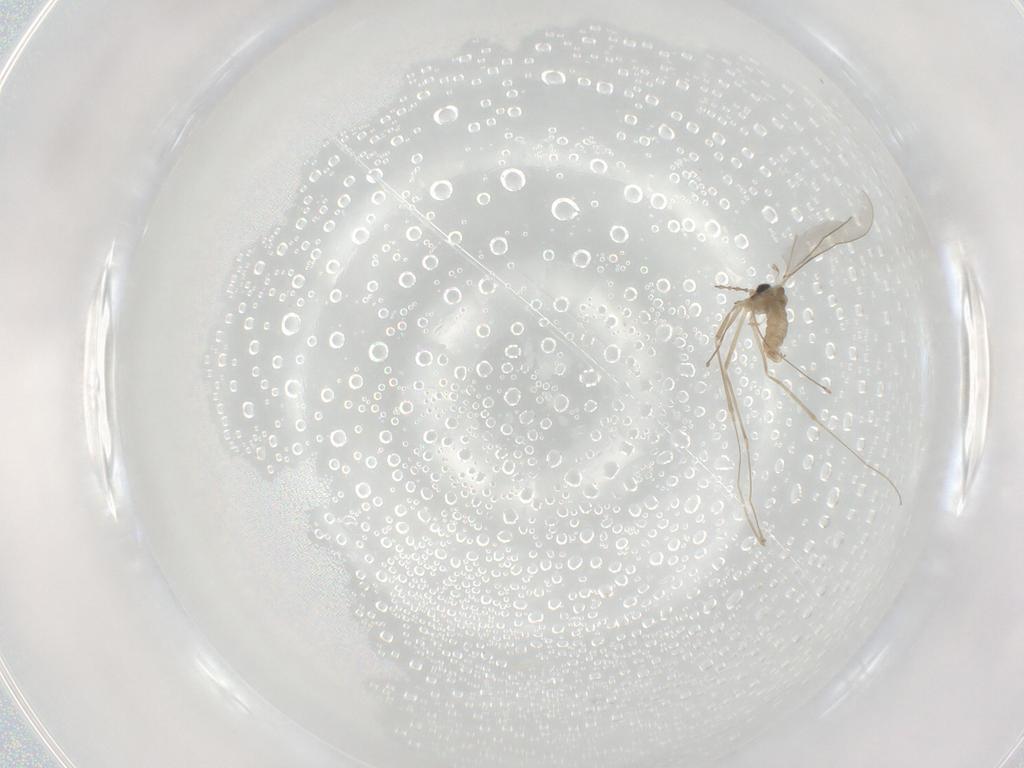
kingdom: Animalia
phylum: Arthropoda
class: Insecta
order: Diptera
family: Cecidomyiidae
